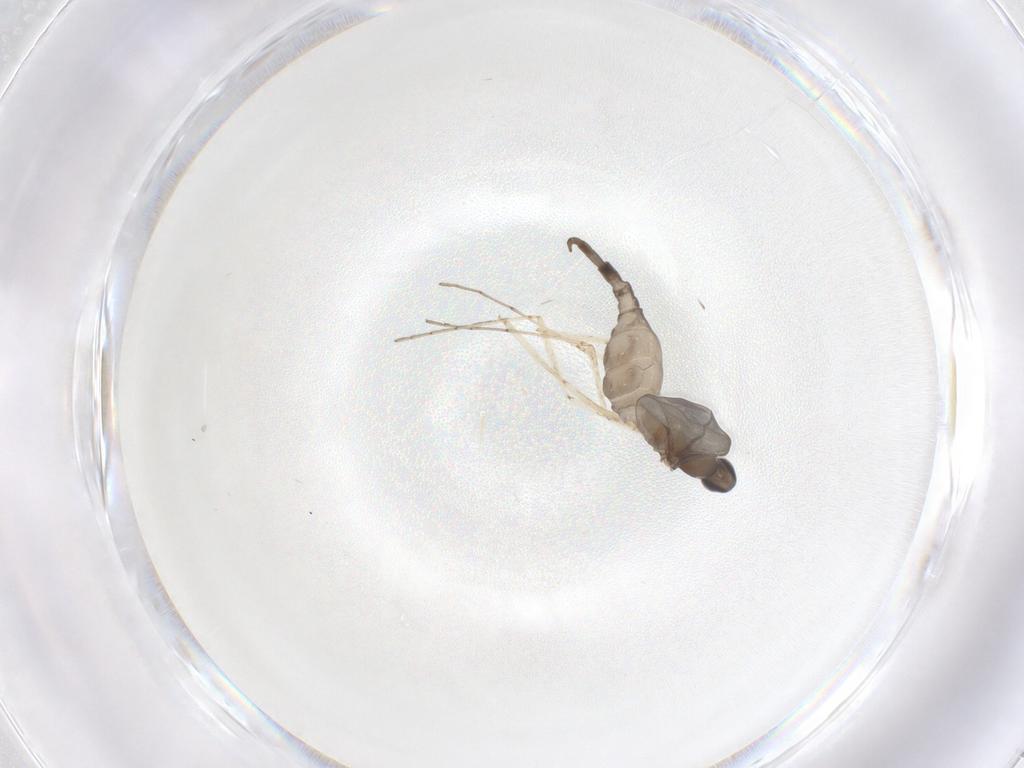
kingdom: Animalia
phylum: Arthropoda
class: Insecta
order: Diptera
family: Cecidomyiidae
